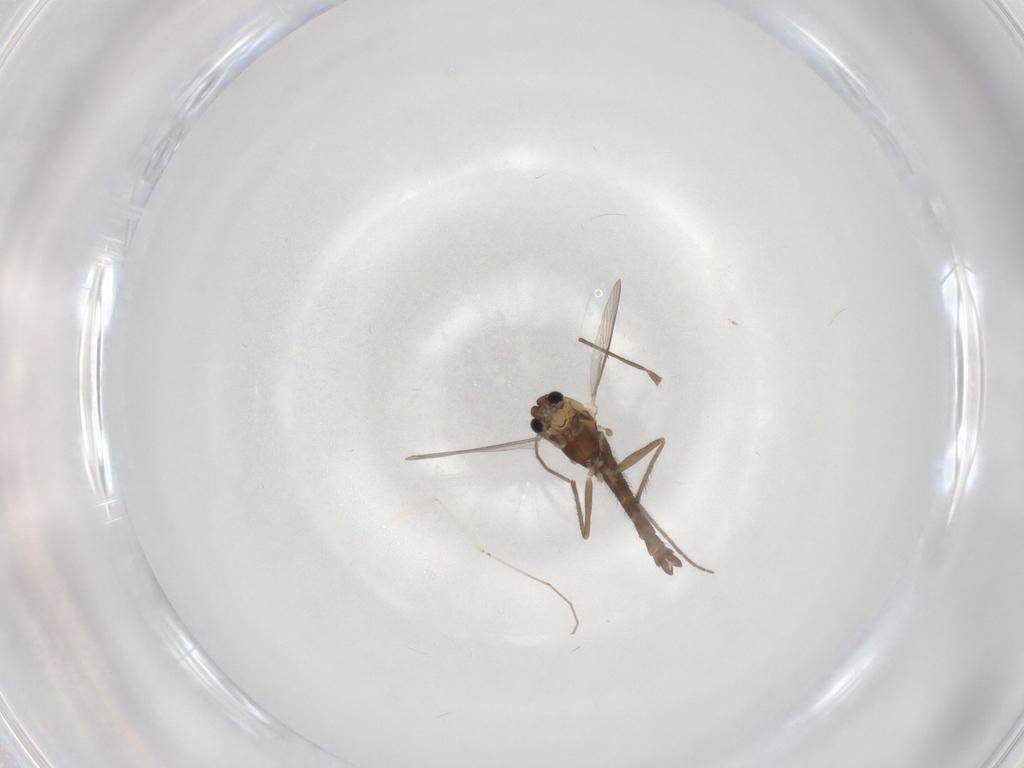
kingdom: Animalia
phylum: Arthropoda
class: Insecta
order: Diptera
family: Chironomidae
